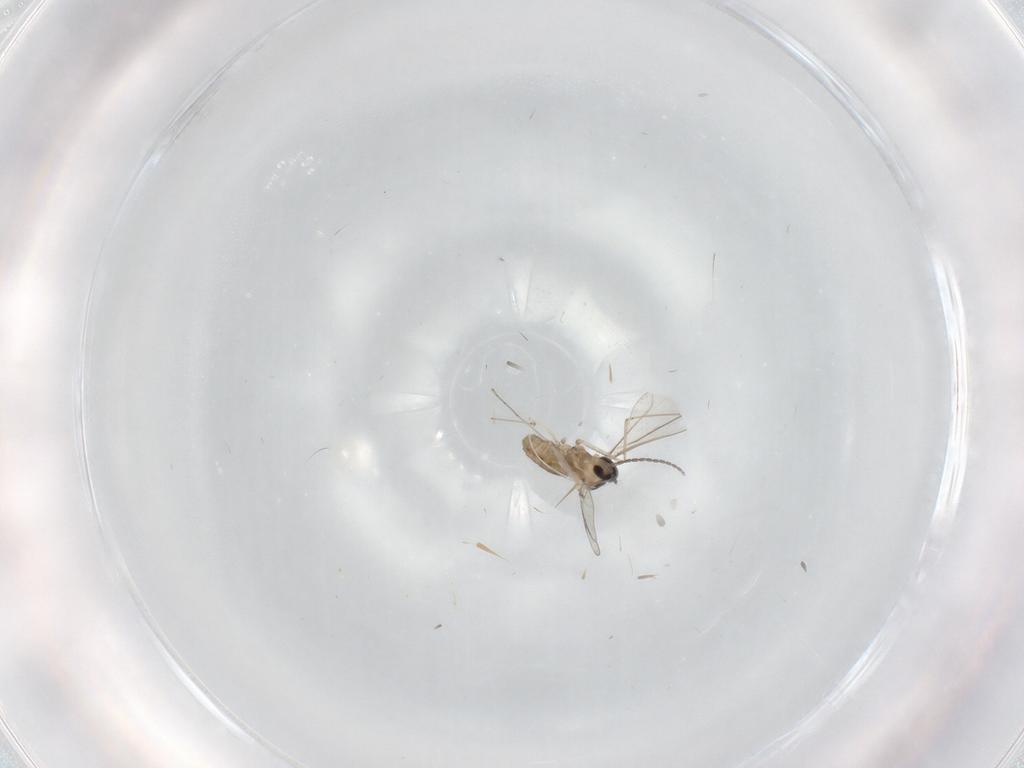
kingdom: Animalia
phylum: Arthropoda
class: Insecta
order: Diptera
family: Cecidomyiidae
